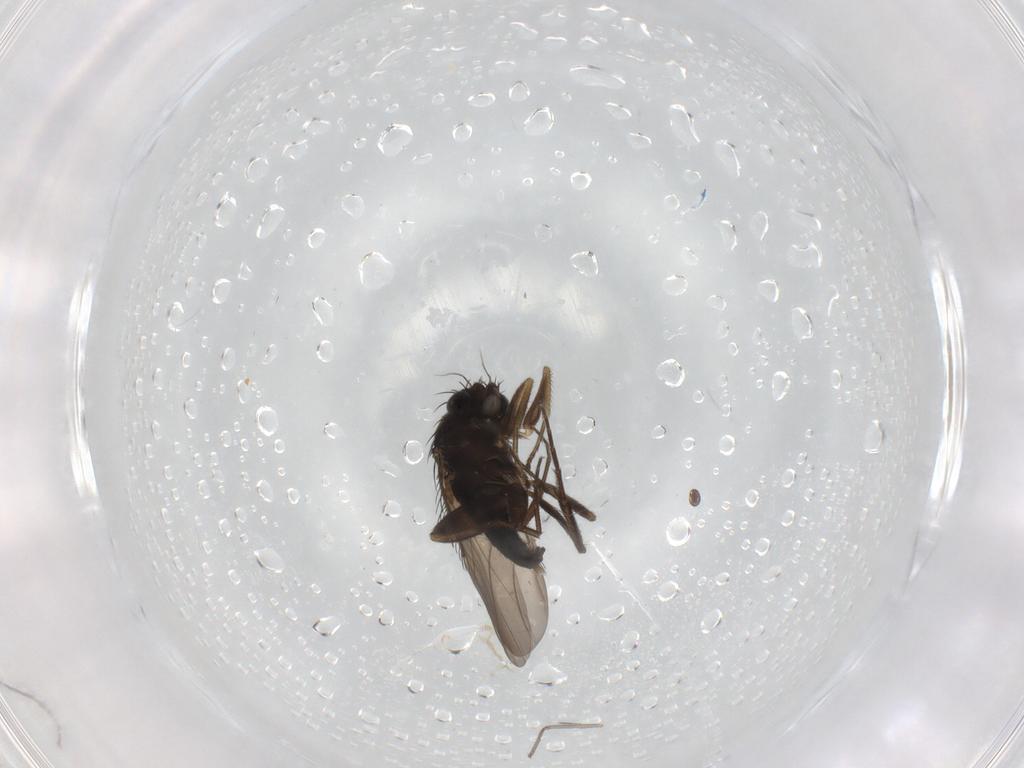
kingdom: Animalia
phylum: Arthropoda
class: Insecta
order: Diptera
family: Phoridae
